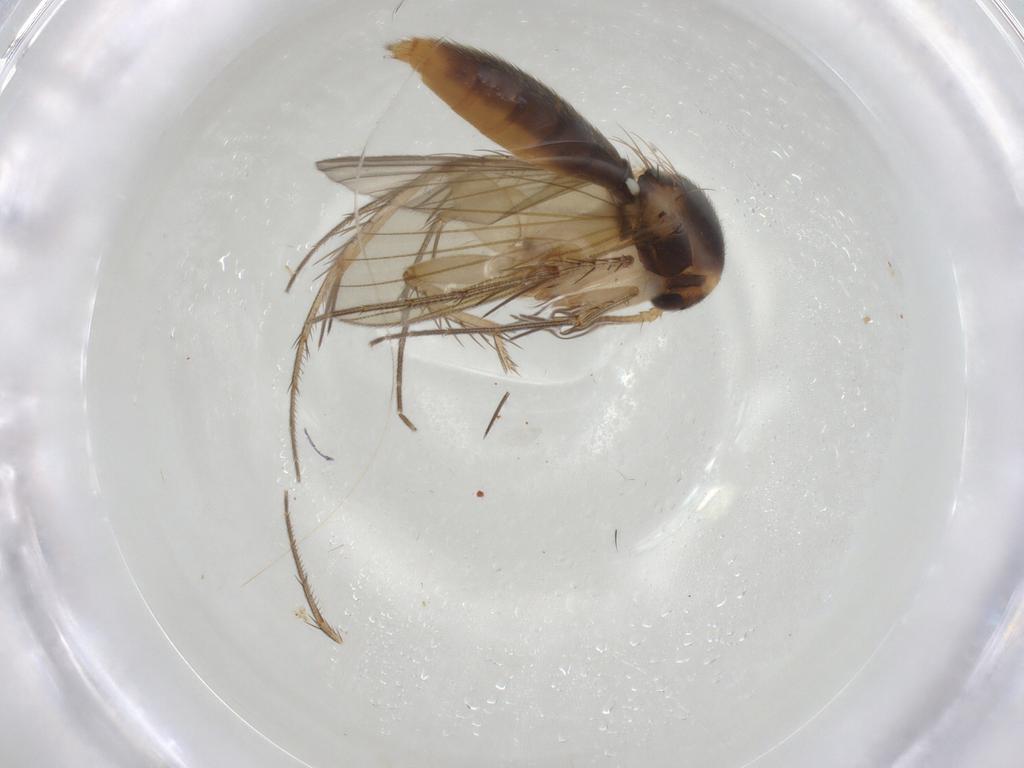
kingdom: Animalia
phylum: Arthropoda
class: Insecta
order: Diptera
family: Mycetophilidae
